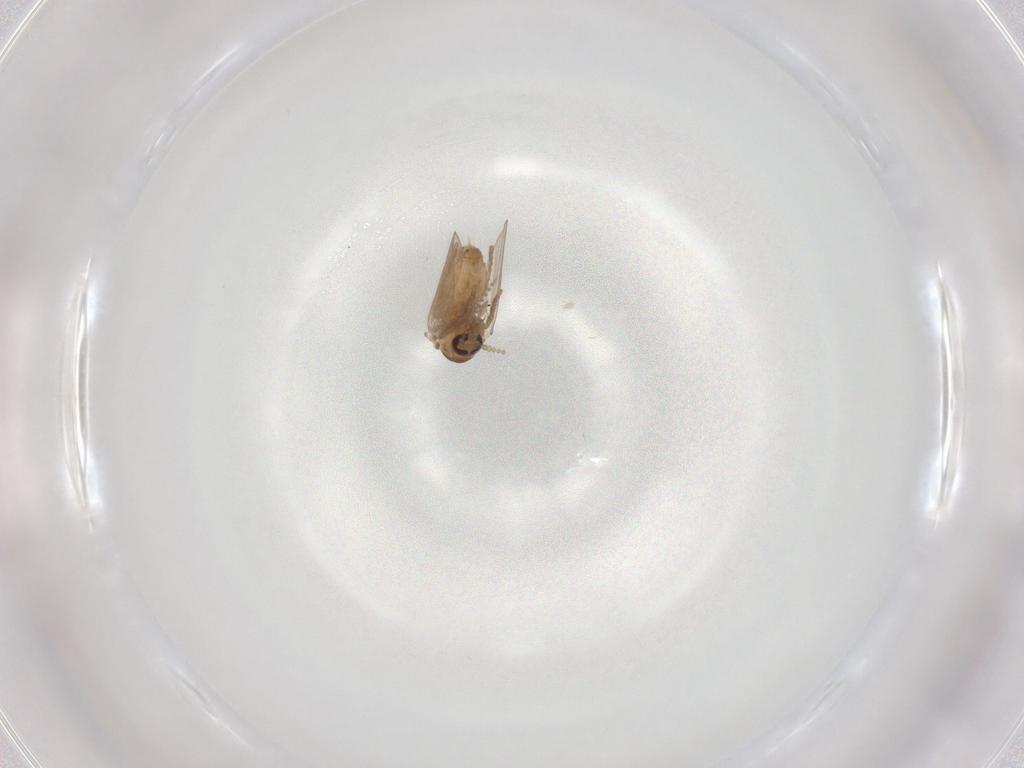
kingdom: Animalia
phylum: Arthropoda
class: Insecta
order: Diptera
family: Psychodidae
